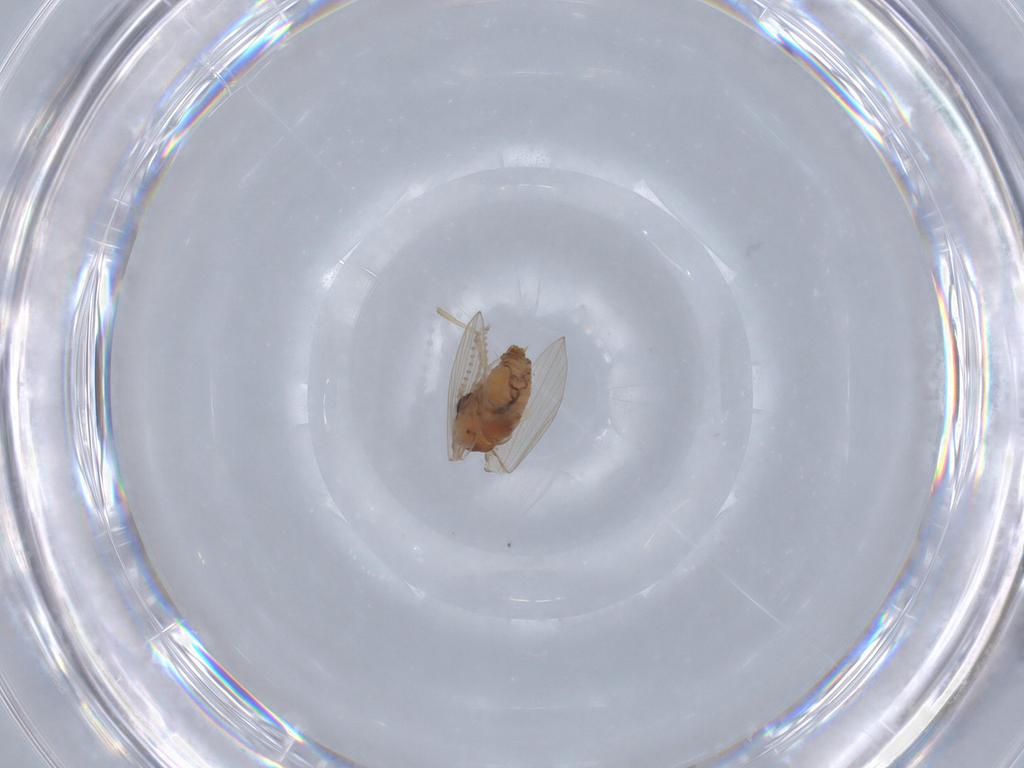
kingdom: Animalia
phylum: Arthropoda
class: Insecta
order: Diptera
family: Psychodidae
